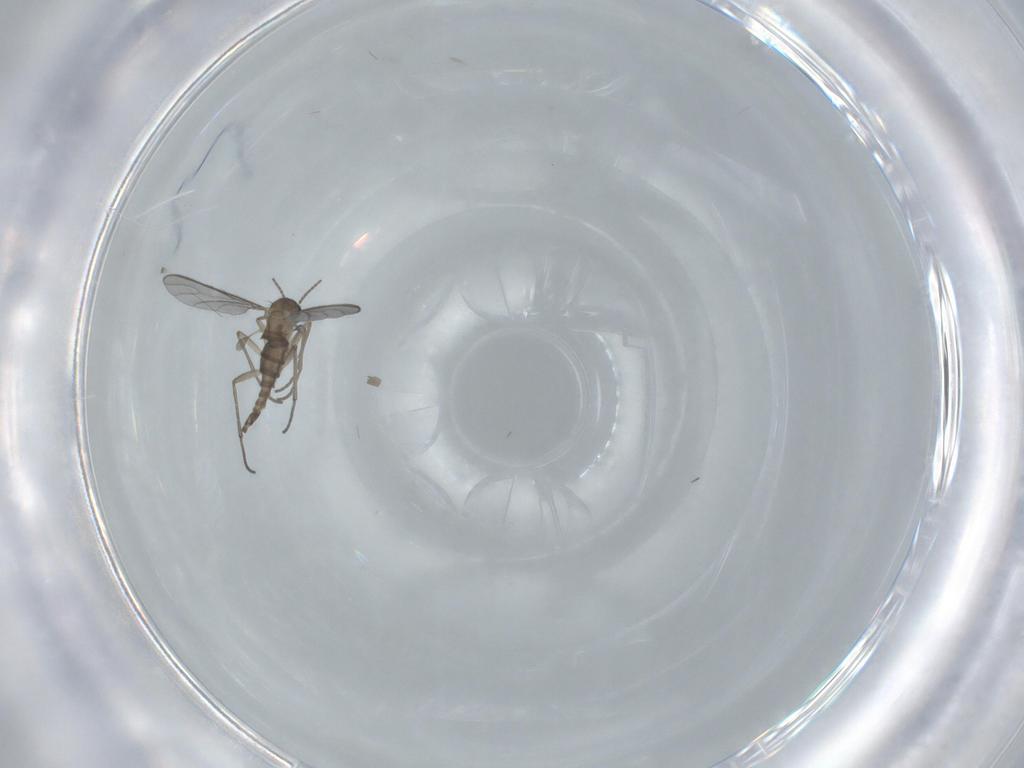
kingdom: Animalia
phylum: Arthropoda
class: Insecta
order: Diptera
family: Sciaridae
